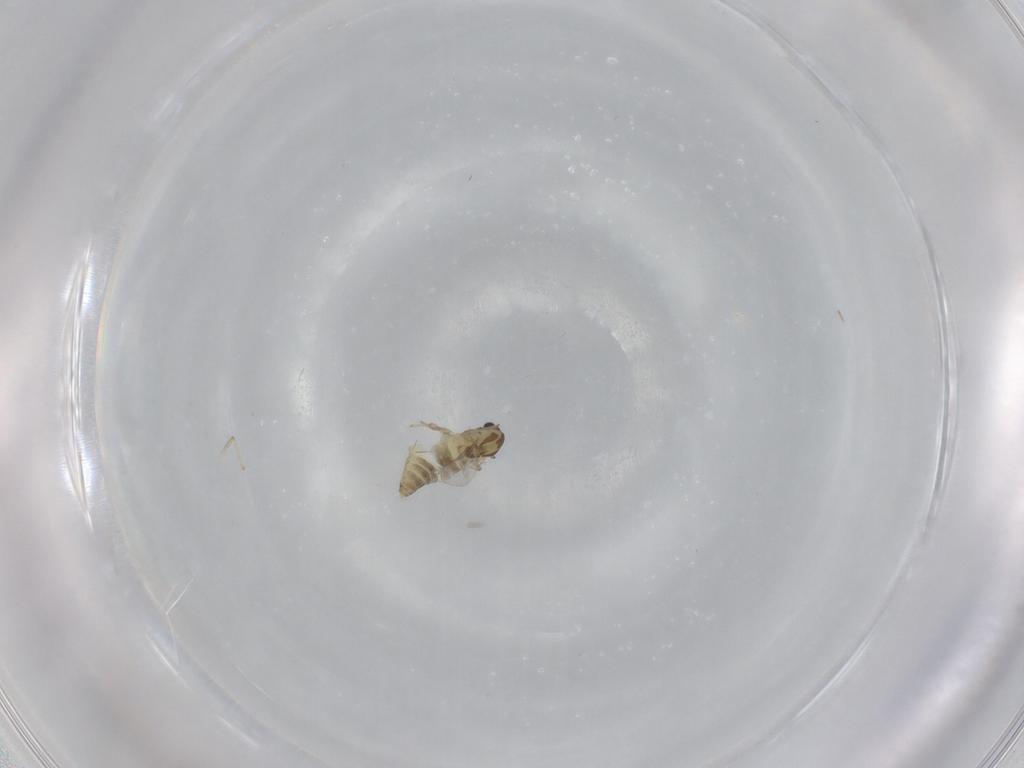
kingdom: Animalia
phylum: Arthropoda
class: Insecta
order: Diptera
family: Chironomidae
